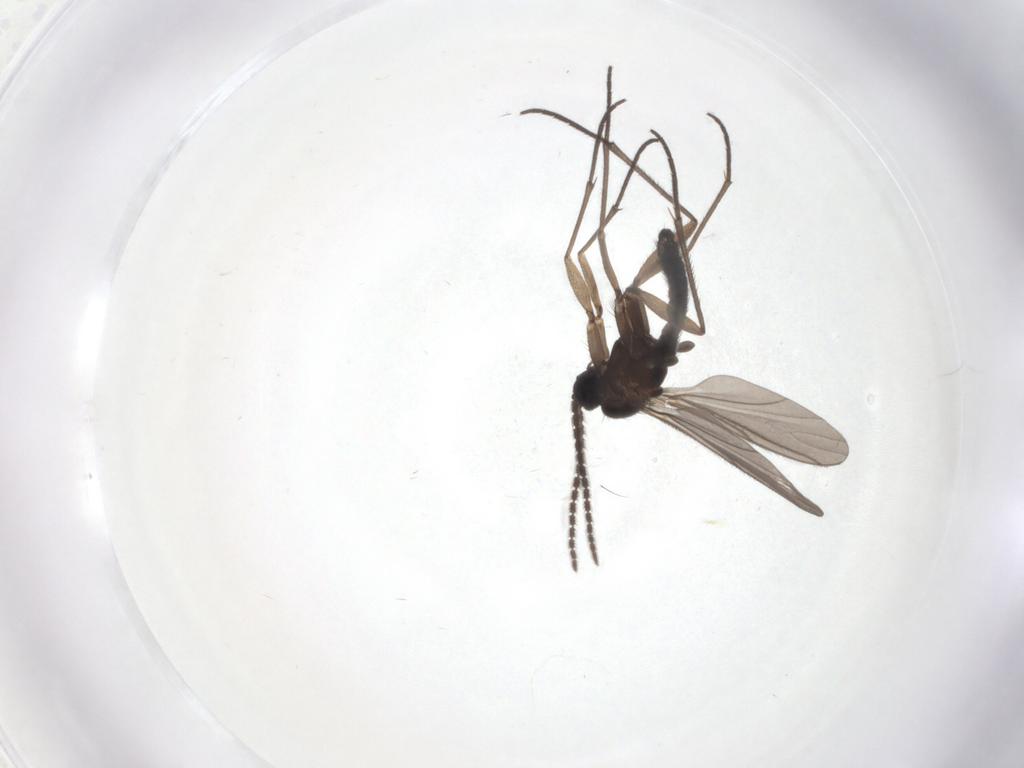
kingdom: Animalia
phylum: Arthropoda
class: Insecta
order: Diptera
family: Sciaridae
